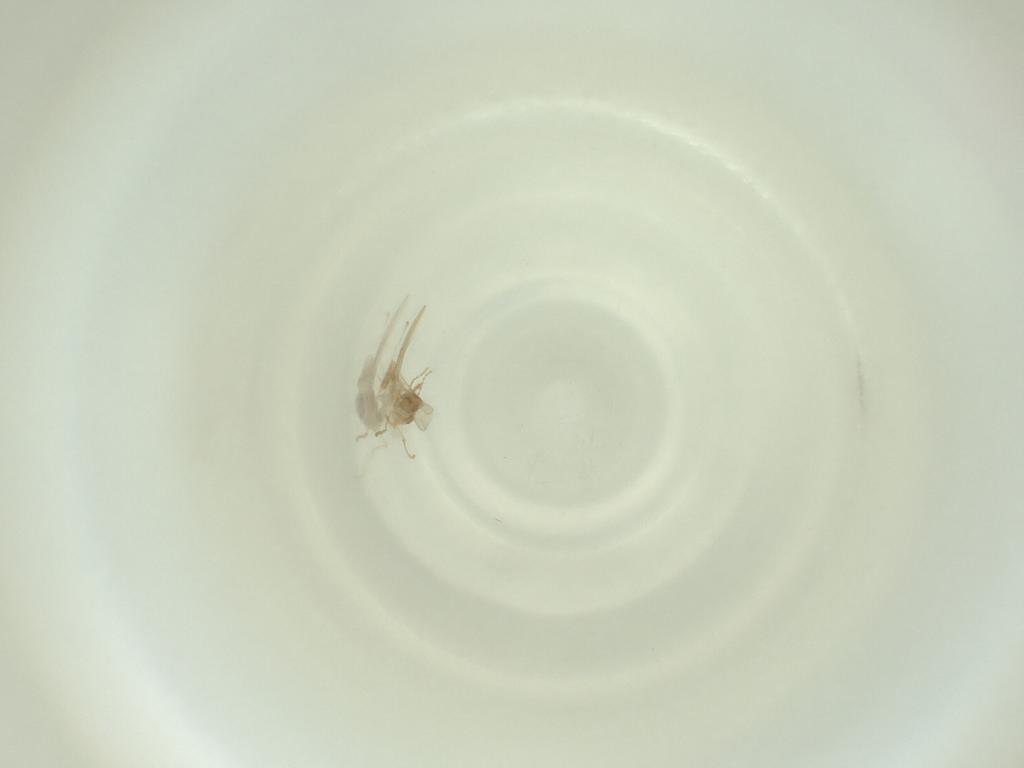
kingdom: Animalia
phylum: Arthropoda
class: Insecta
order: Diptera
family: Cecidomyiidae
